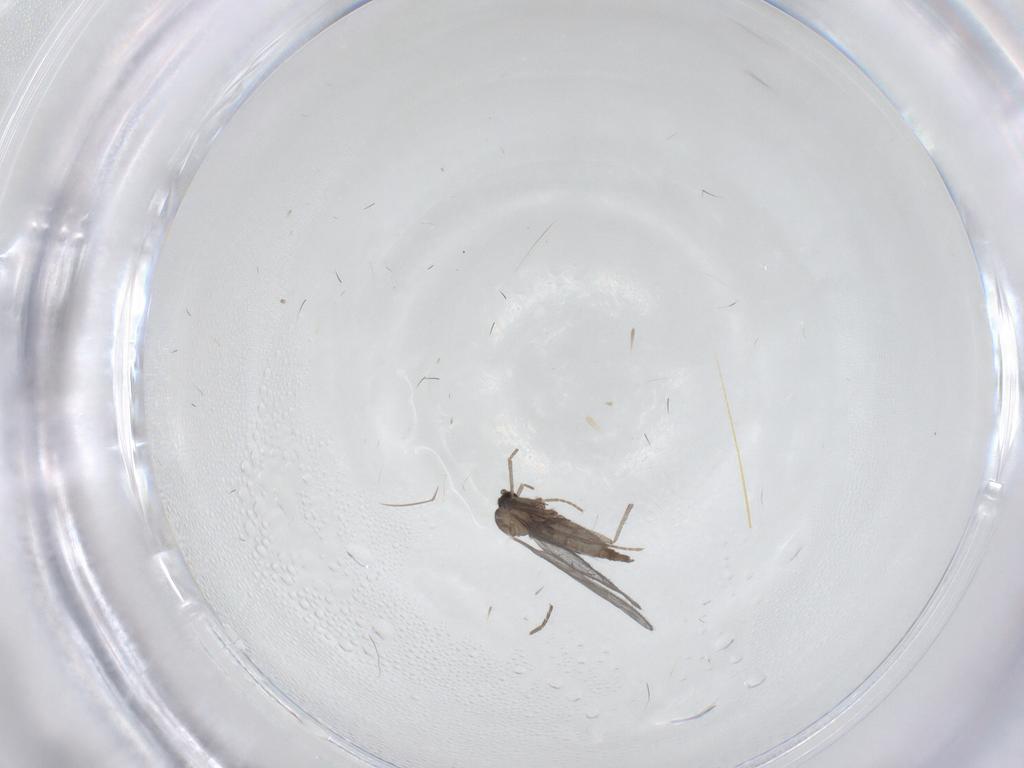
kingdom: Animalia
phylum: Arthropoda
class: Insecta
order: Diptera
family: Sciaridae
